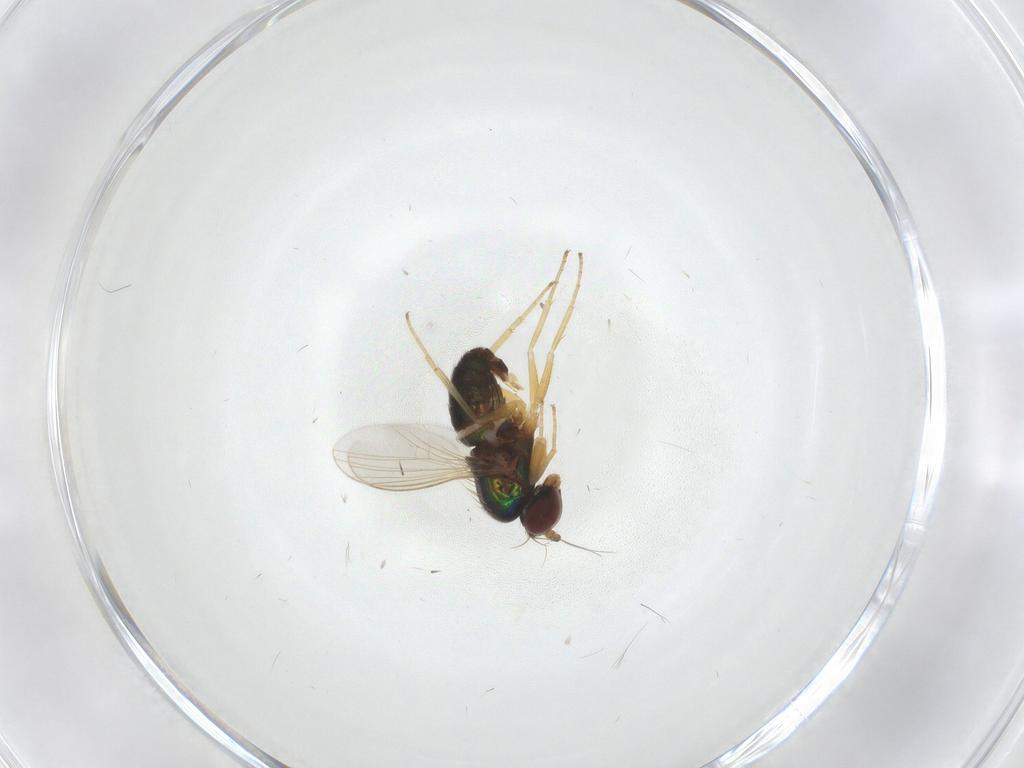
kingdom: Animalia
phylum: Arthropoda
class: Insecta
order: Diptera
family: Dolichopodidae
